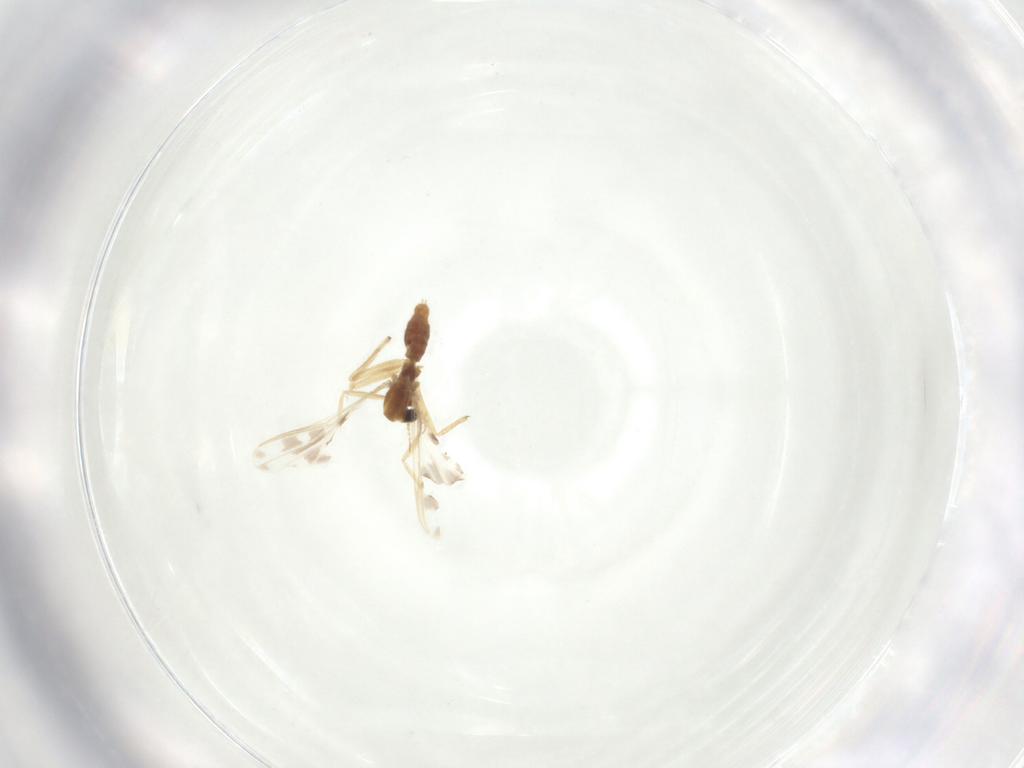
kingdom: Animalia
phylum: Arthropoda
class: Insecta
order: Diptera
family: Chironomidae
